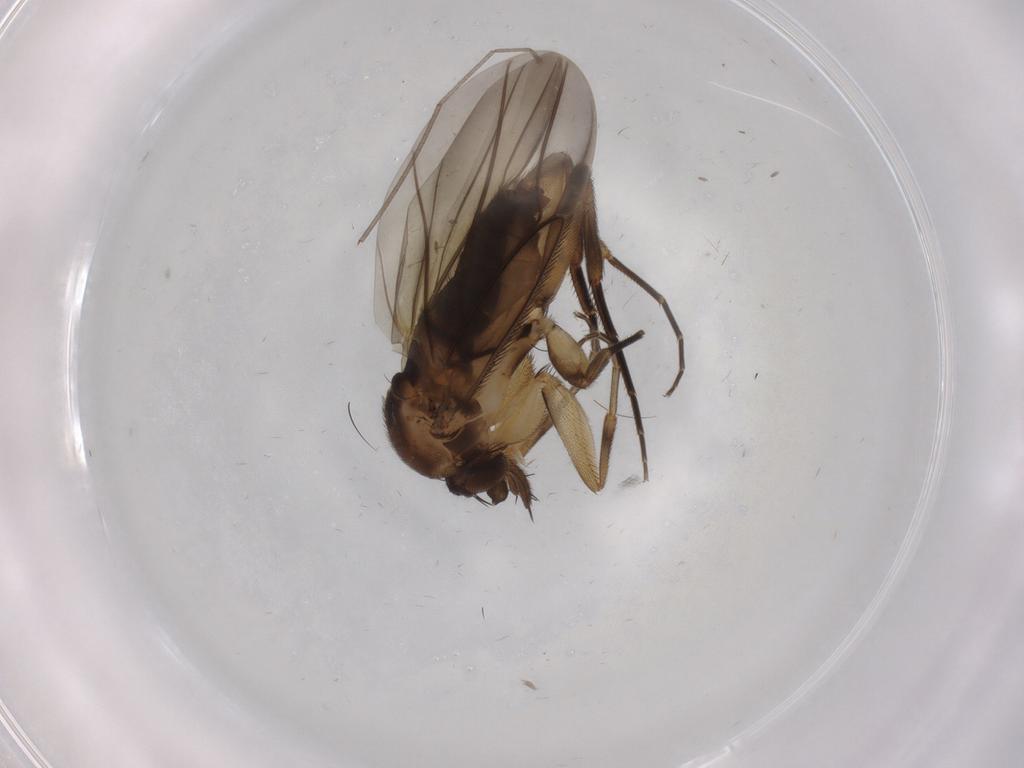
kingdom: Animalia
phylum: Arthropoda
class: Insecta
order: Diptera
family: Phoridae
